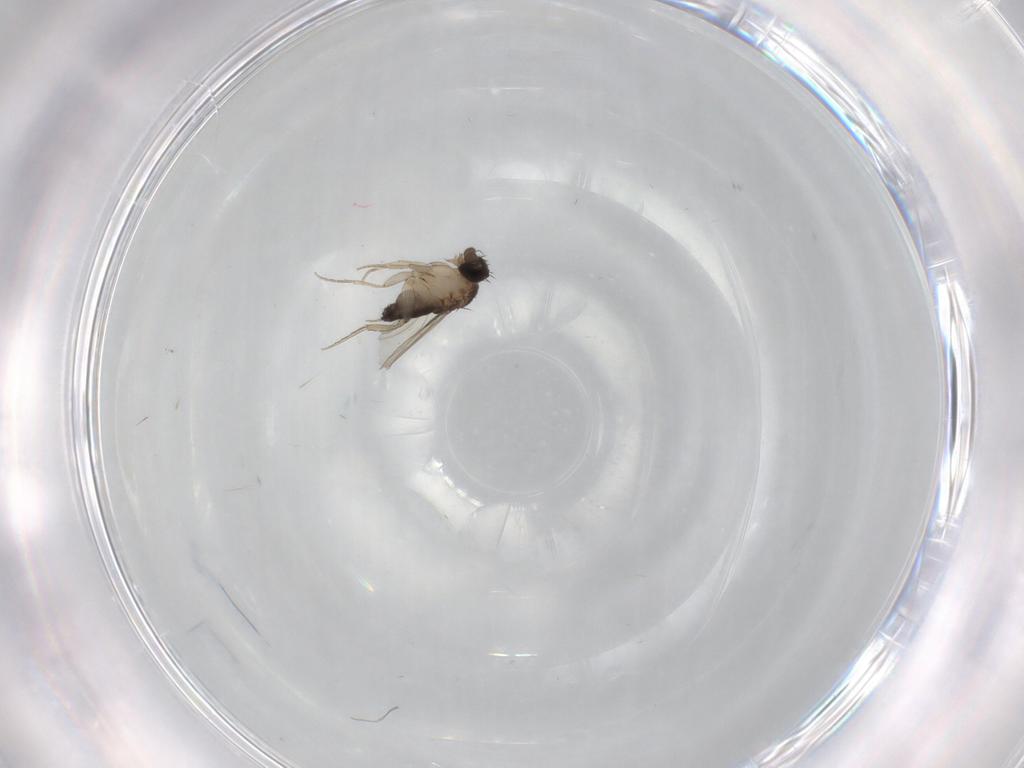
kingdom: Animalia
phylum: Arthropoda
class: Insecta
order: Diptera
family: Phoridae
